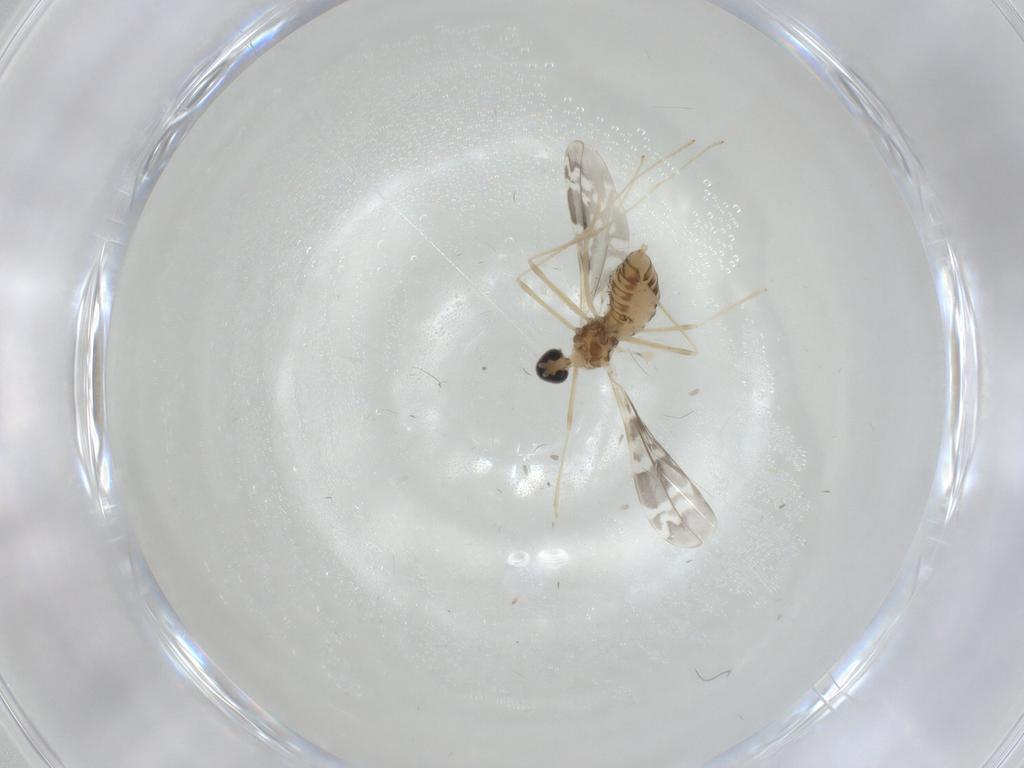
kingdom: Animalia
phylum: Arthropoda
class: Insecta
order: Diptera
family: Cecidomyiidae
